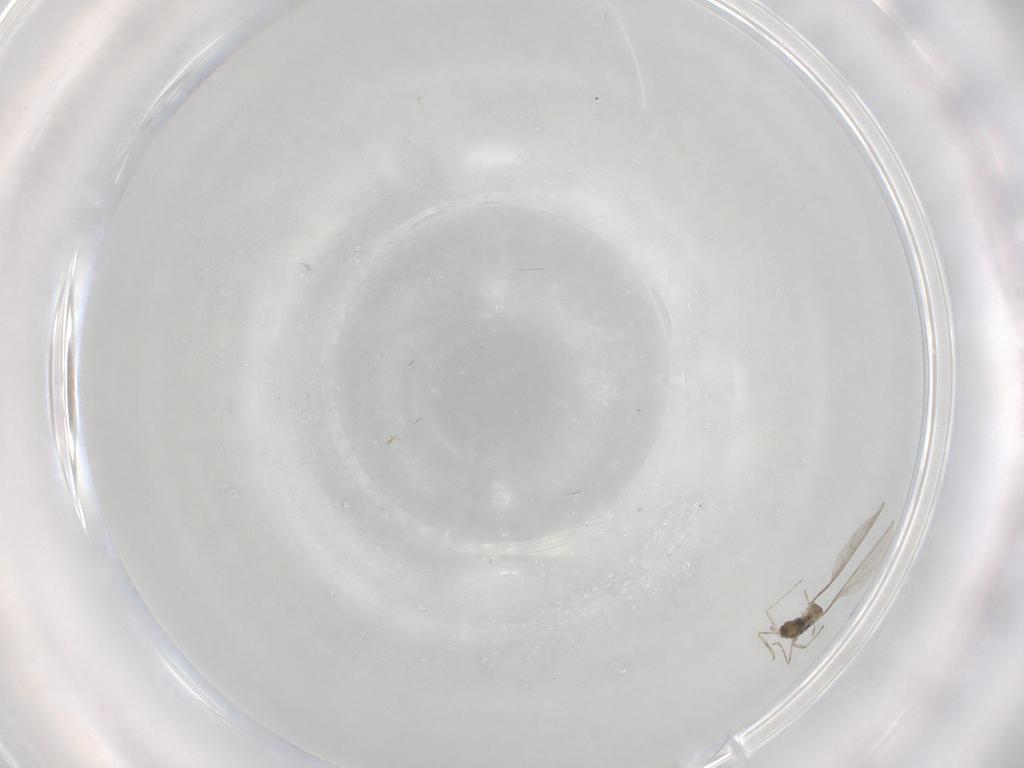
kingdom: Animalia
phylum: Arthropoda
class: Insecta
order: Diptera
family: Cecidomyiidae
